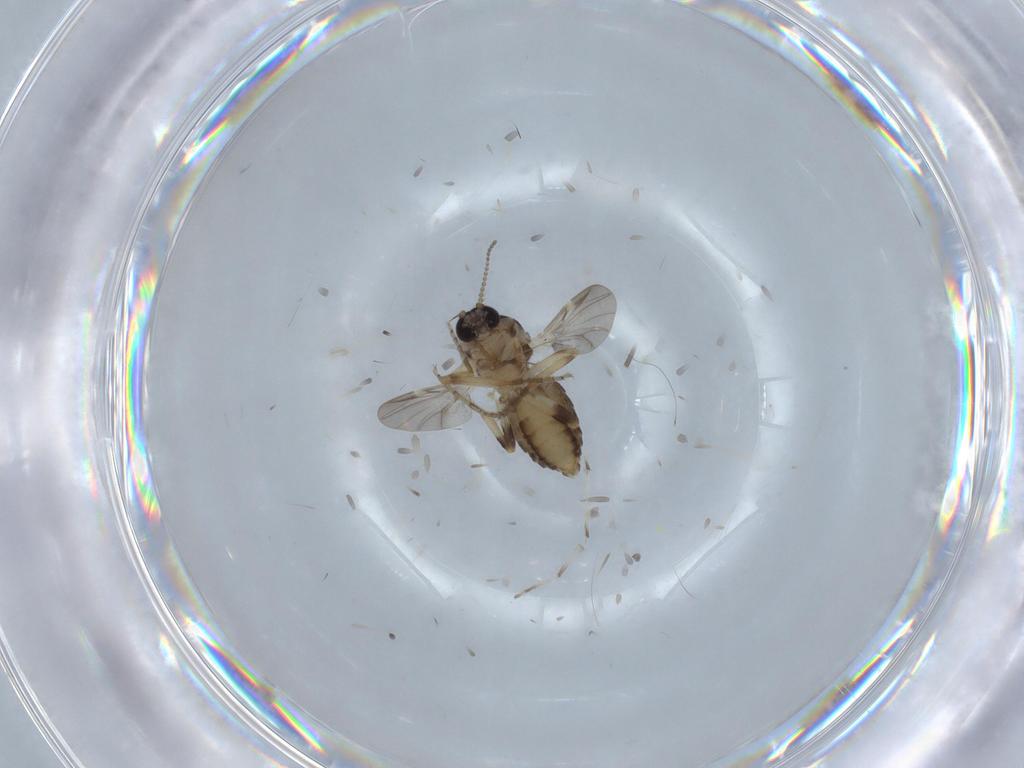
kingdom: Animalia
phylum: Arthropoda
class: Insecta
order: Diptera
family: Ceratopogonidae
